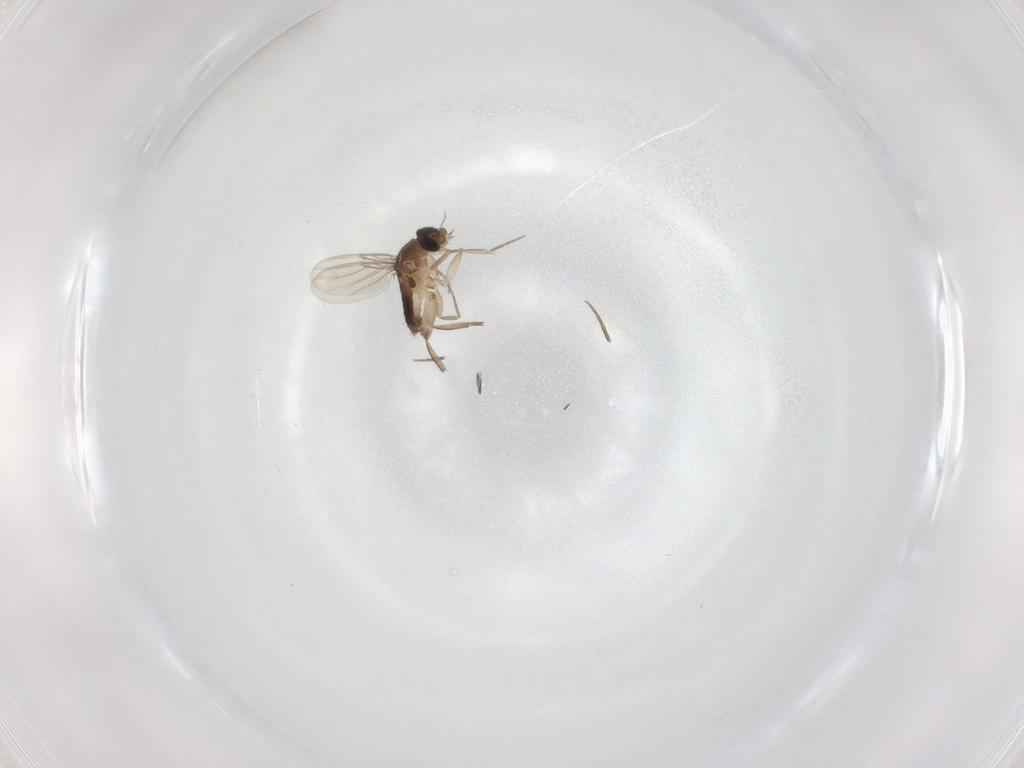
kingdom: Animalia
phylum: Arthropoda
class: Insecta
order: Diptera
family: Phoridae
